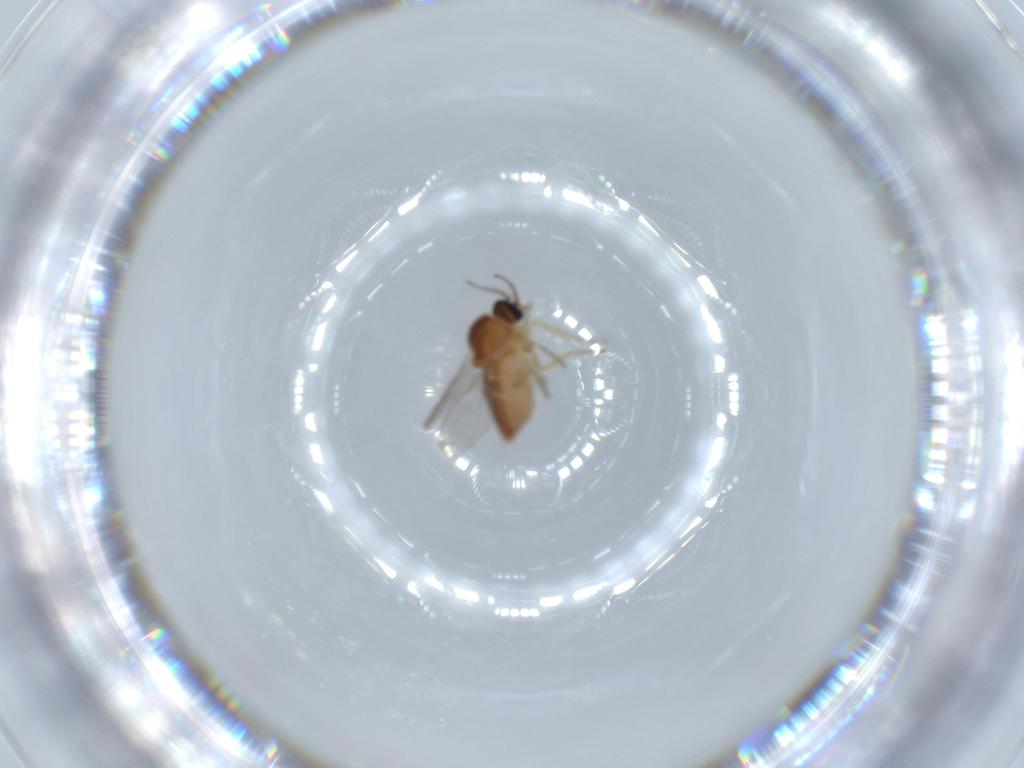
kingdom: Animalia
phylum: Arthropoda
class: Insecta
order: Diptera
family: Ceratopogonidae
